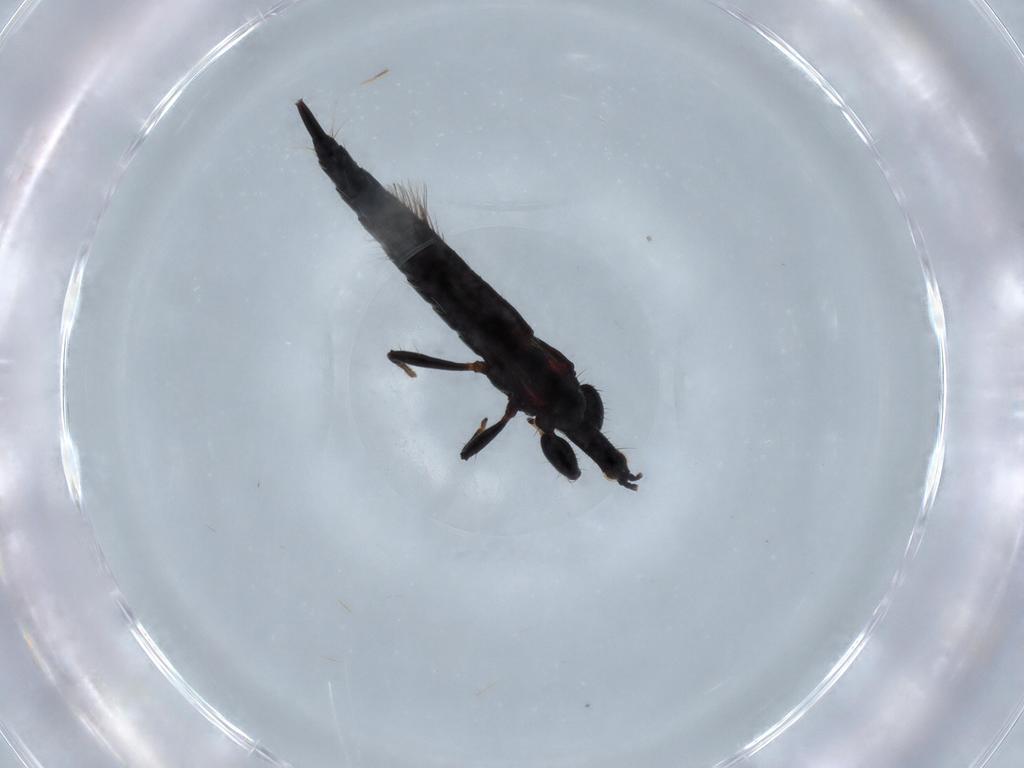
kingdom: Animalia
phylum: Arthropoda
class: Insecta
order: Thysanoptera
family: Phlaeothripidae
